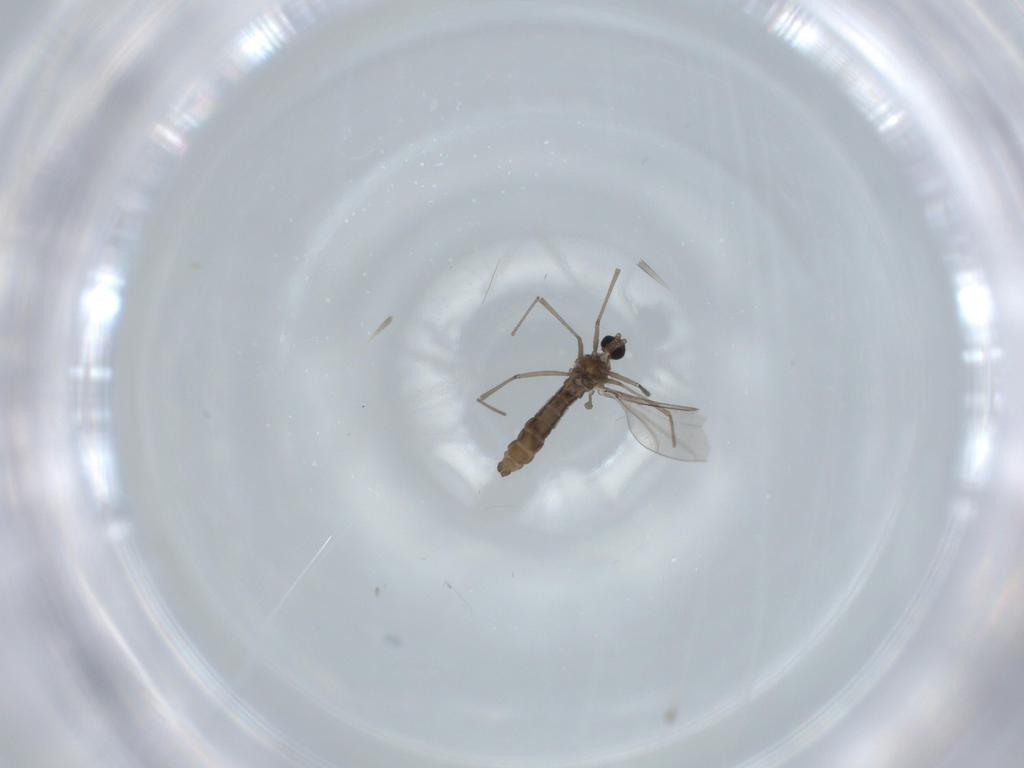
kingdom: Animalia
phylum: Arthropoda
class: Insecta
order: Diptera
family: Cecidomyiidae
